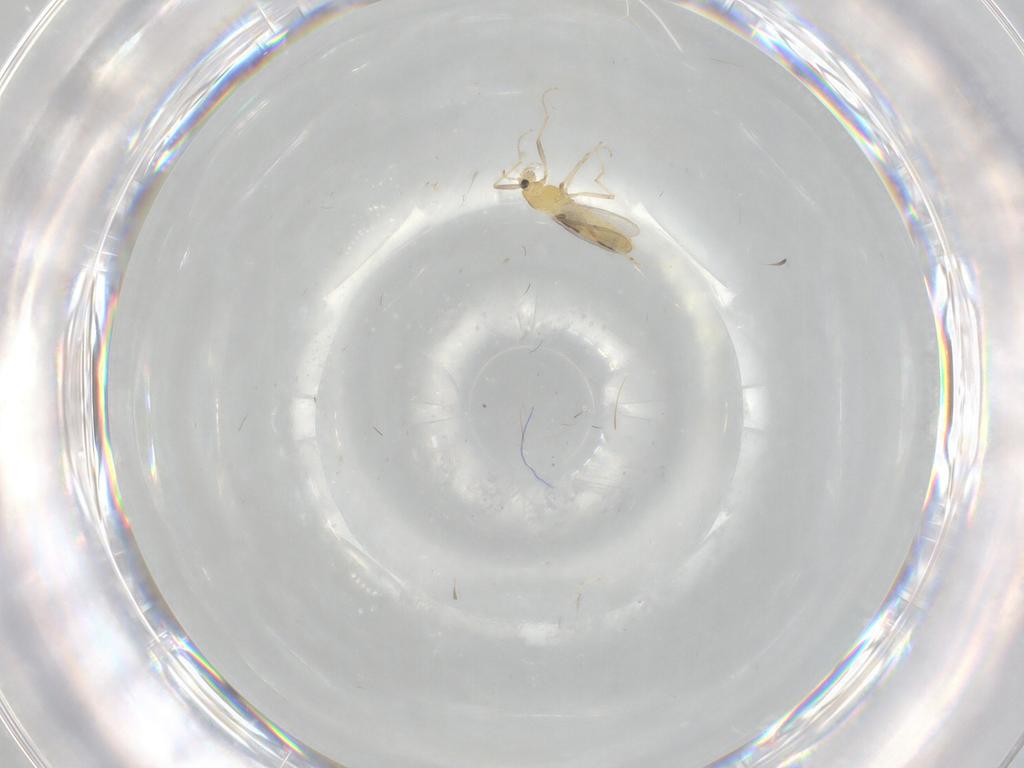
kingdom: Animalia
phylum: Arthropoda
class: Insecta
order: Diptera
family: Chironomidae
